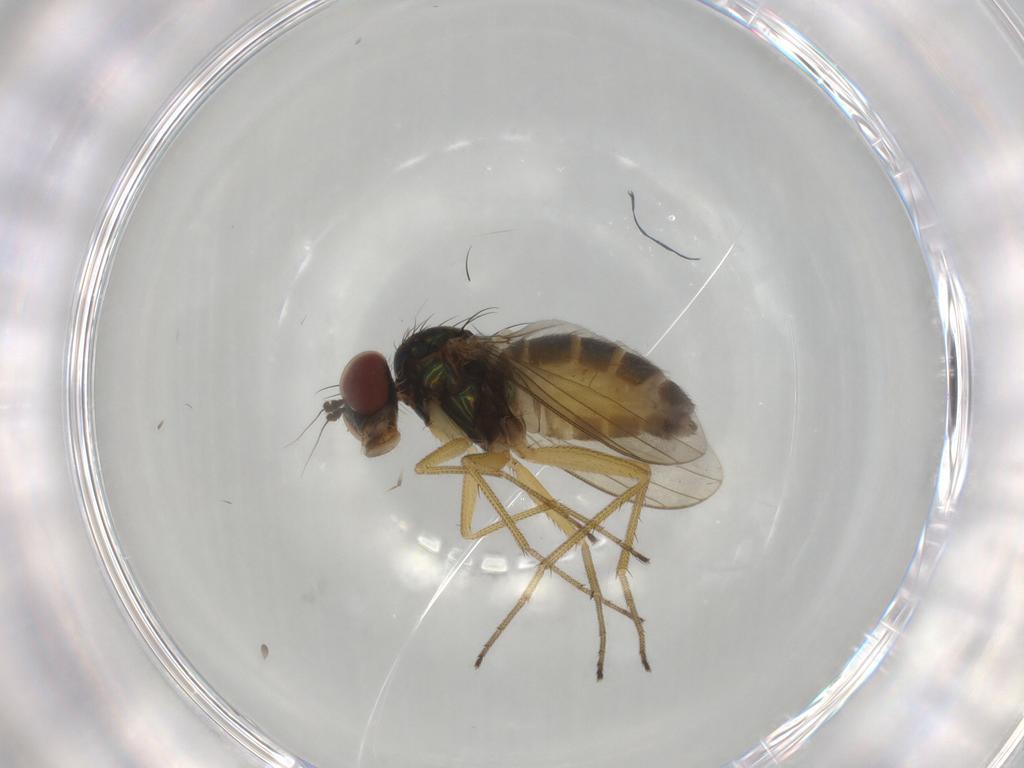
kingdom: Animalia
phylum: Arthropoda
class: Insecta
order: Diptera
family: Dolichopodidae
